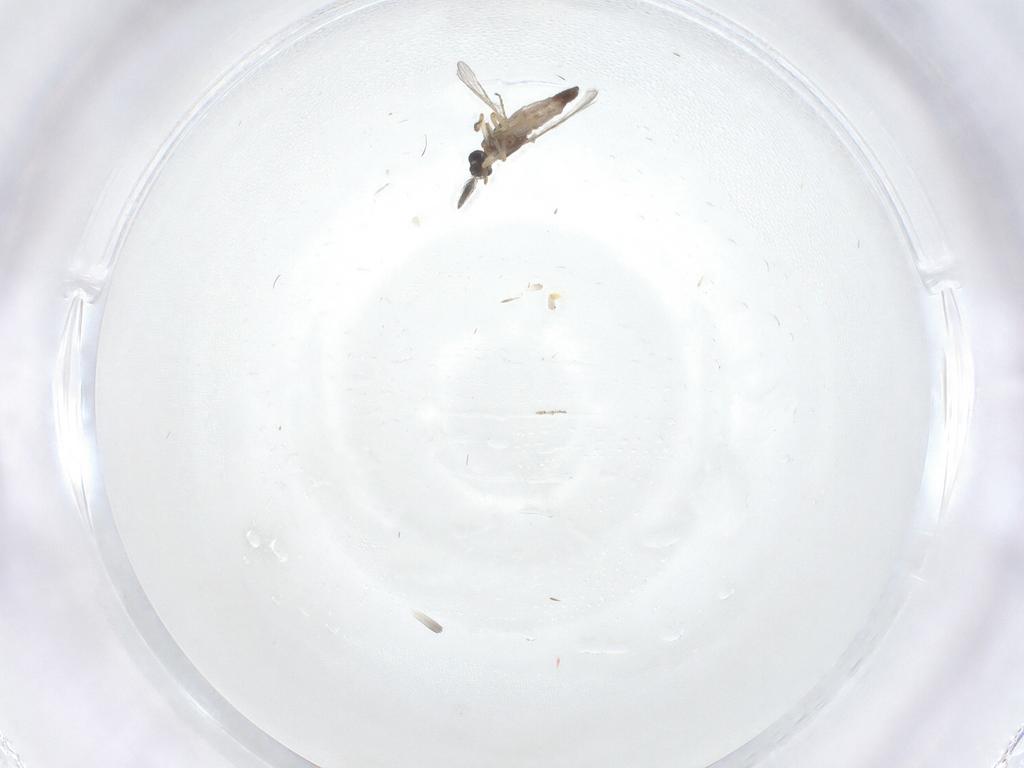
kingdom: Animalia
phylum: Arthropoda
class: Insecta
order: Diptera
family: Ceratopogonidae
